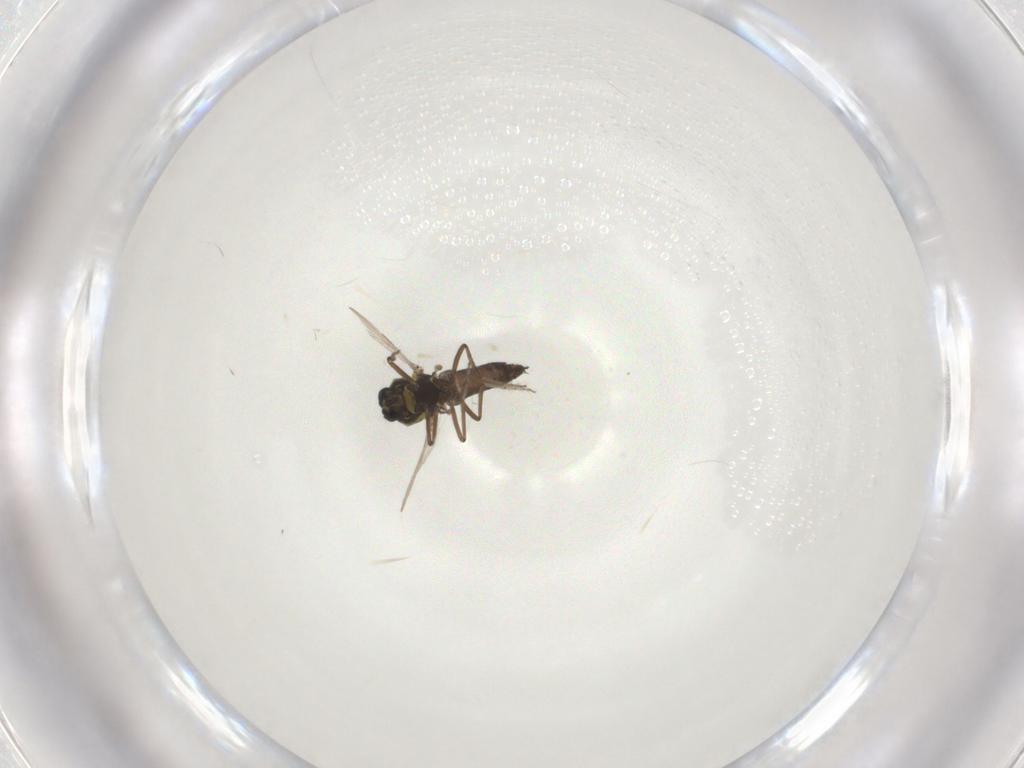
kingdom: Animalia
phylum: Arthropoda
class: Insecta
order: Diptera
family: Ceratopogonidae
